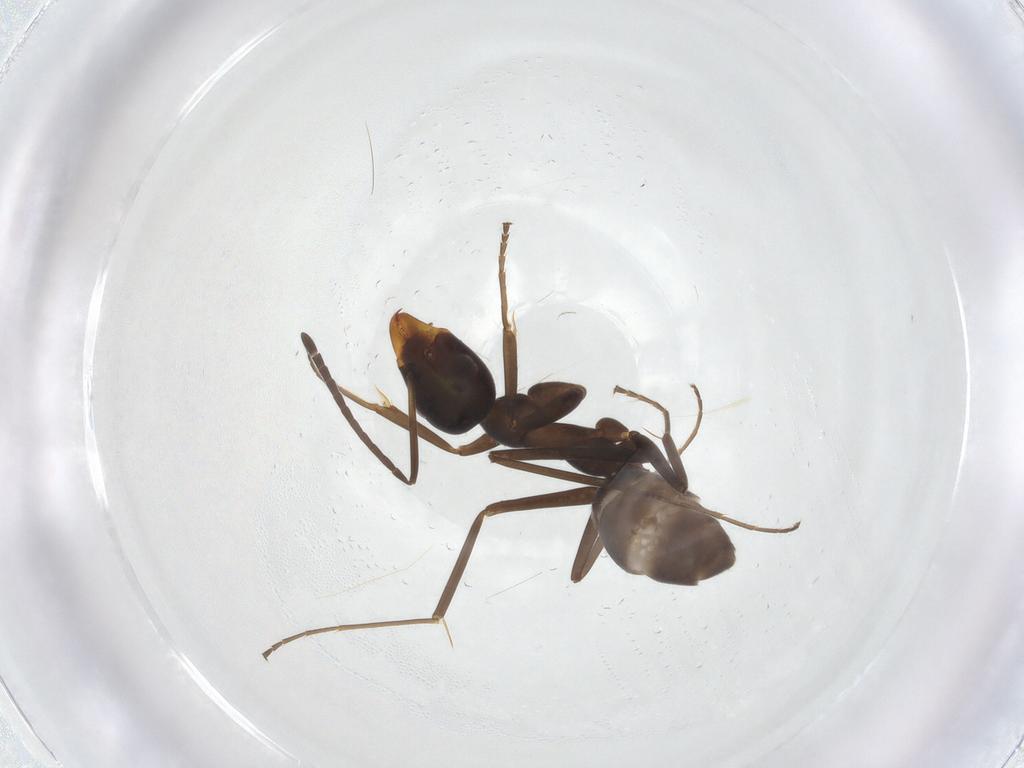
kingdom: Animalia
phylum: Arthropoda
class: Insecta
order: Hymenoptera
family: Formicidae
